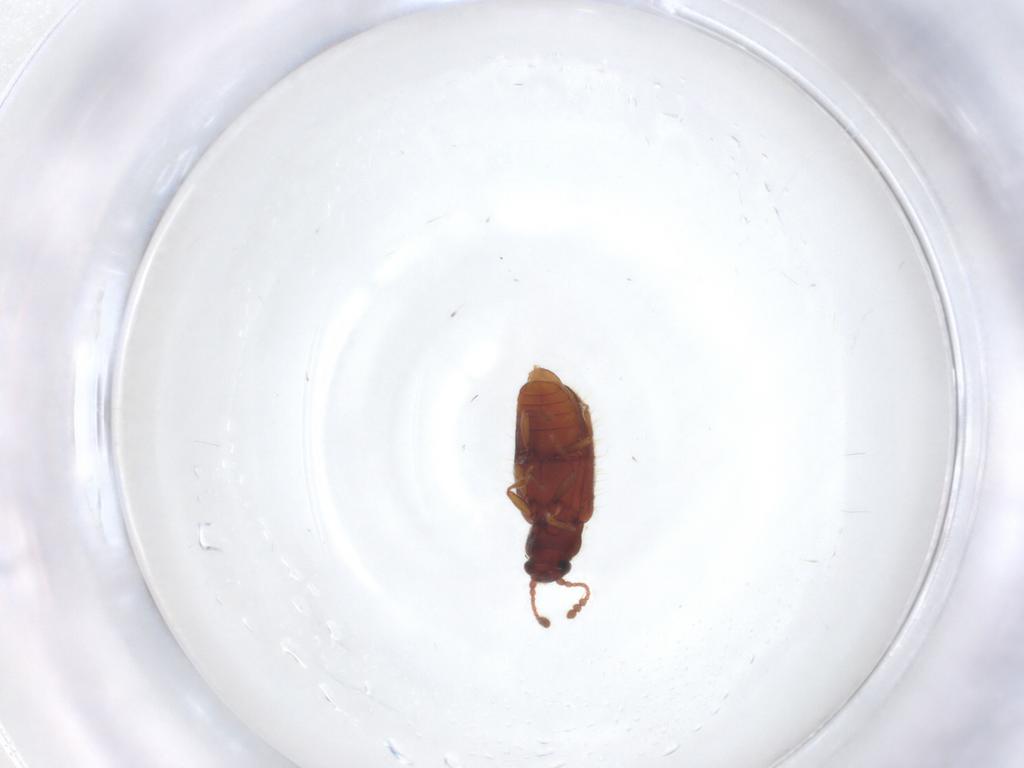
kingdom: Animalia
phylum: Arthropoda
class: Insecta
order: Coleoptera
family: Cryptophagidae
